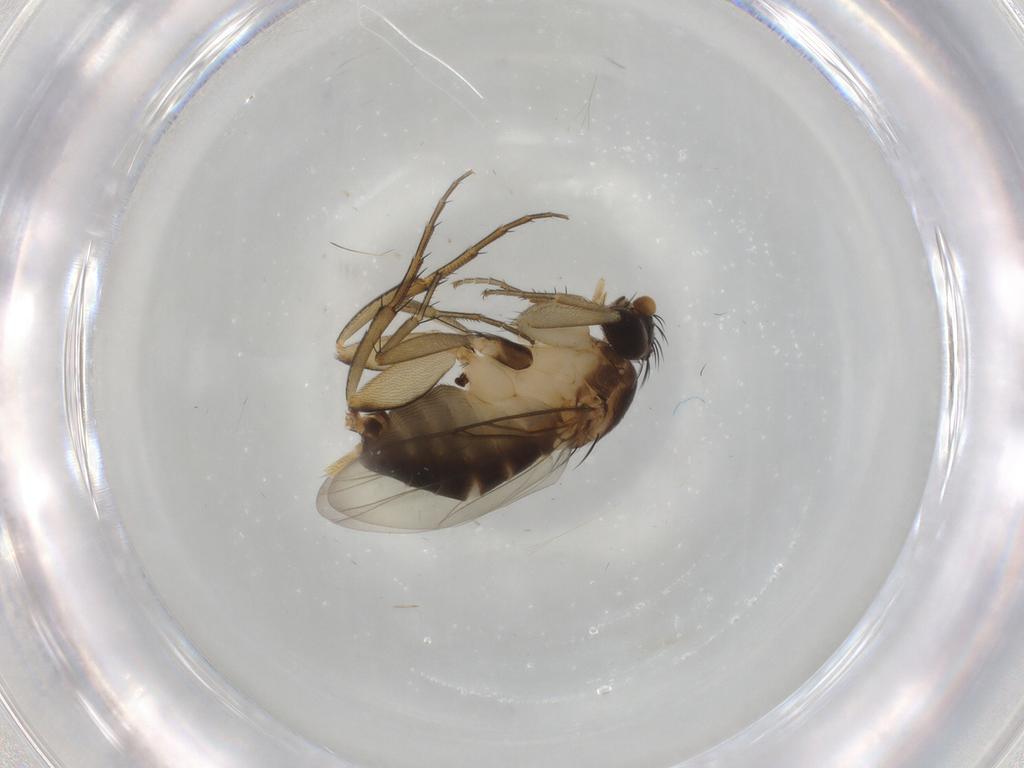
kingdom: Animalia
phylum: Arthropoda
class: Insecta
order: Diptera
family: Phoridae
